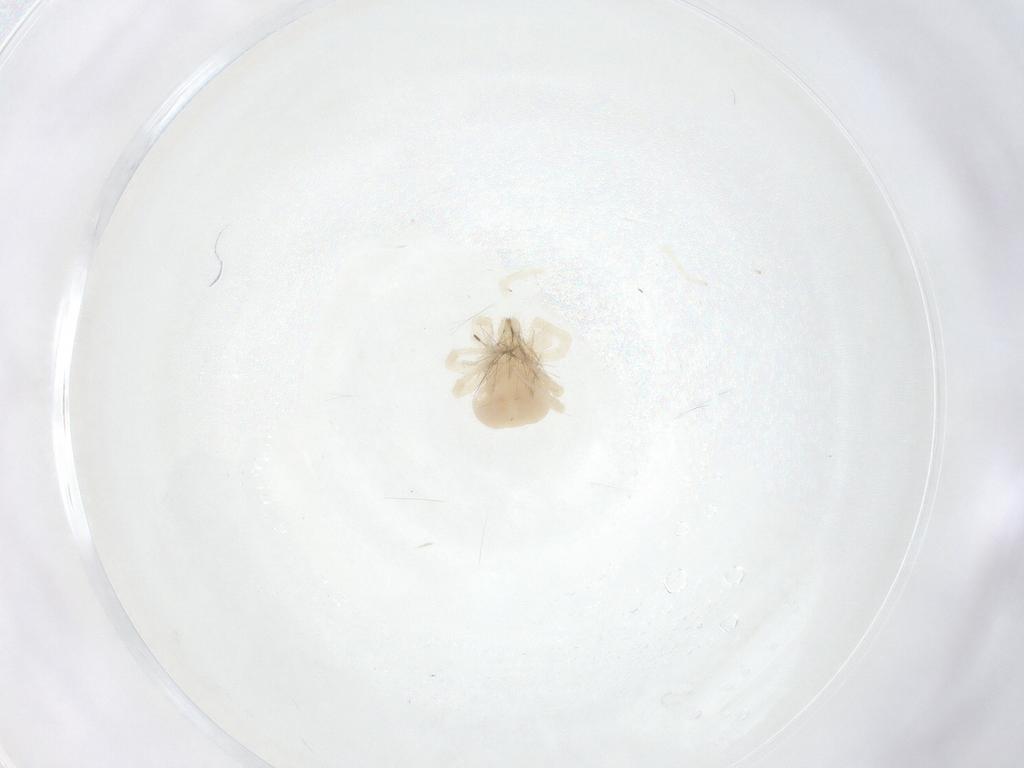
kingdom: Animalia
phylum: Arthropoda
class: Arachnida
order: Trombidiformes
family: Anystidae
